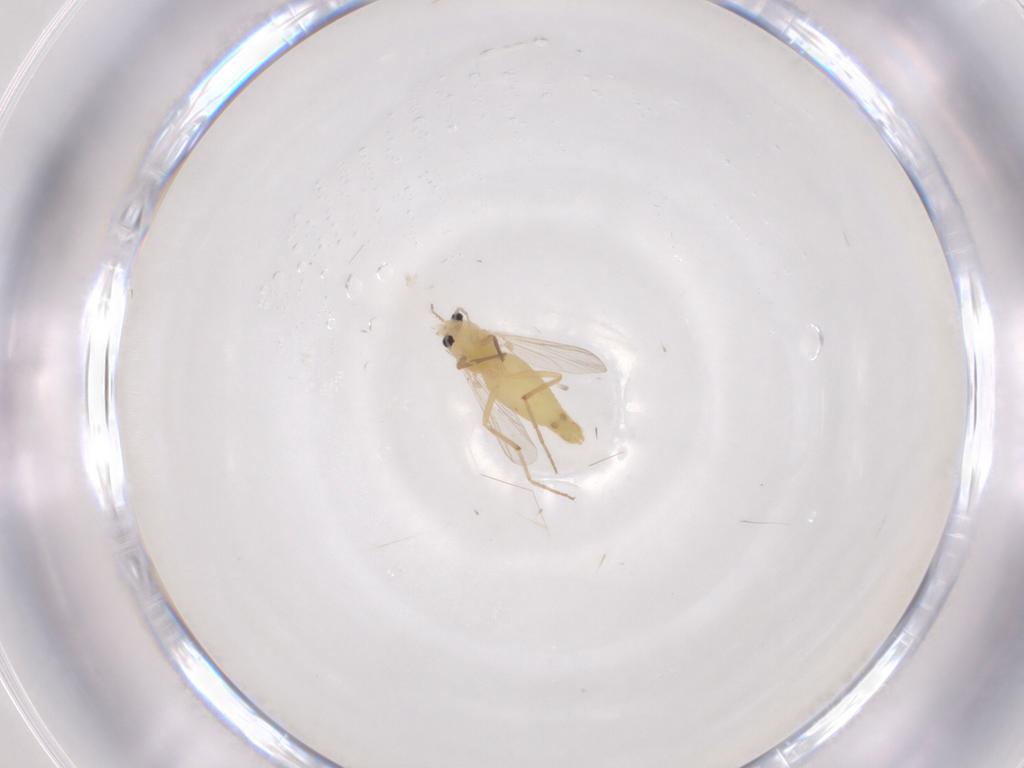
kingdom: Animalia
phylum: Arthropoda
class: Insecta
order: Diptera
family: Chironomidae
